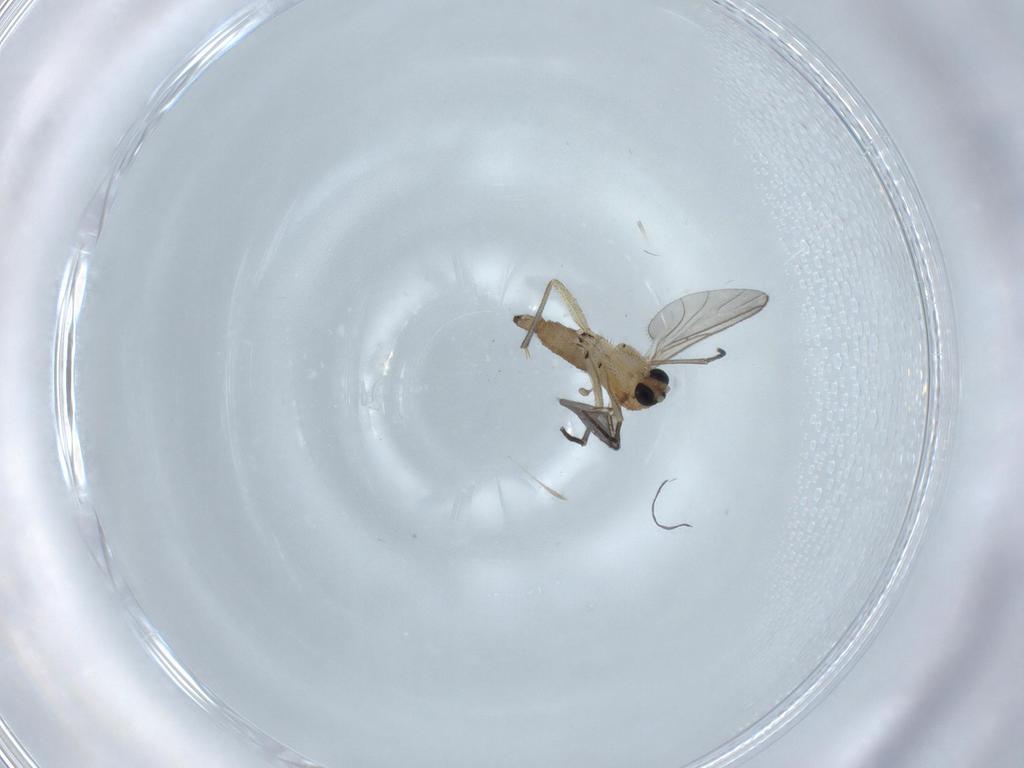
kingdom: Animalia
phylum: Arthropoda
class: Insecta
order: Diptera
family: Sciaridae
